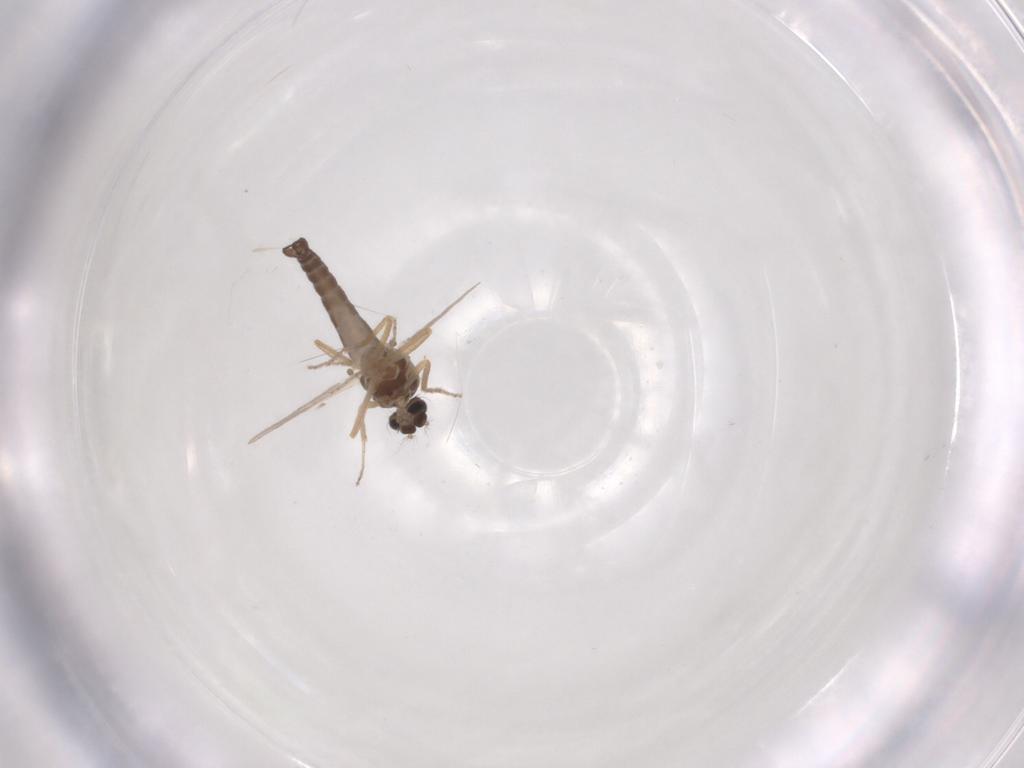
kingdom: Animalia
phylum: Arthropoda
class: Insecta
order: Diptera
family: Ceratopogonidae
